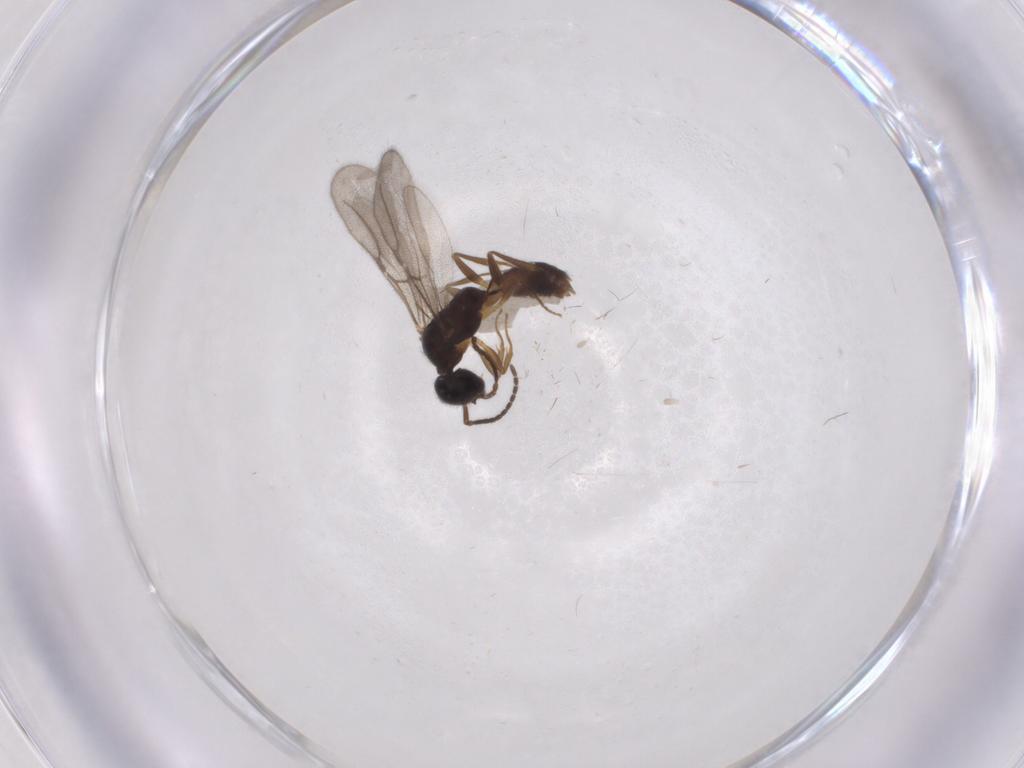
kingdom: Animalia
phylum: Arthropoda
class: Insecta
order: Hymenoptera
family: Bethylidae
